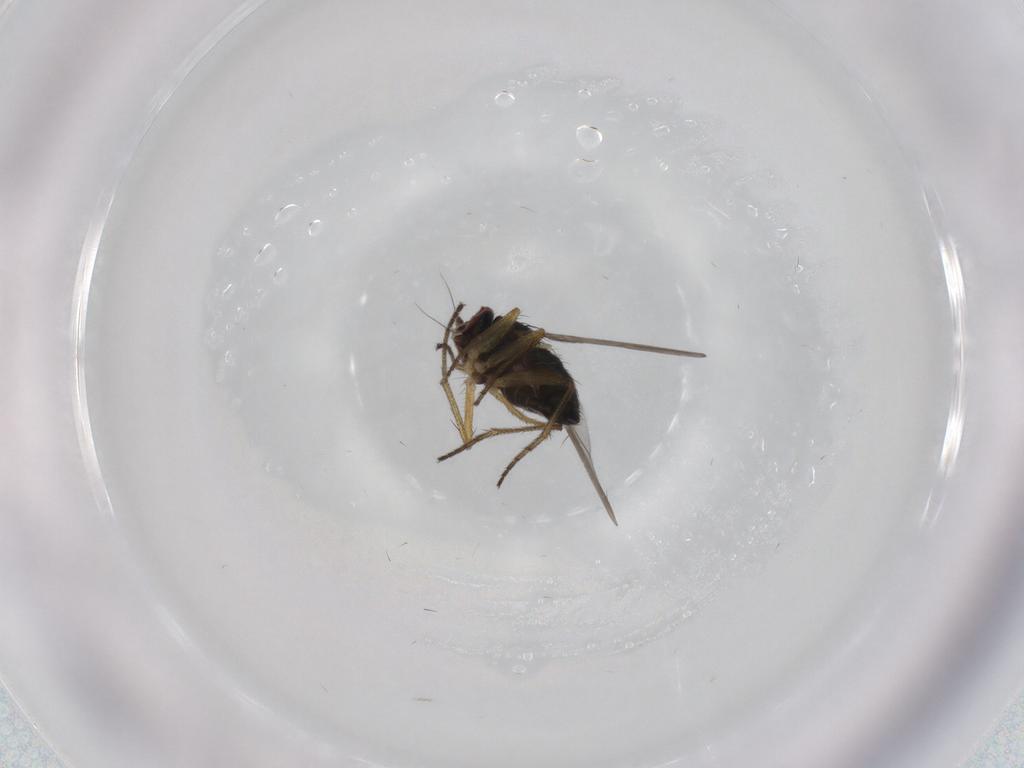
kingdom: Animalia
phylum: Arthropoda
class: Insecta
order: Diptera
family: Dolichopodidae
